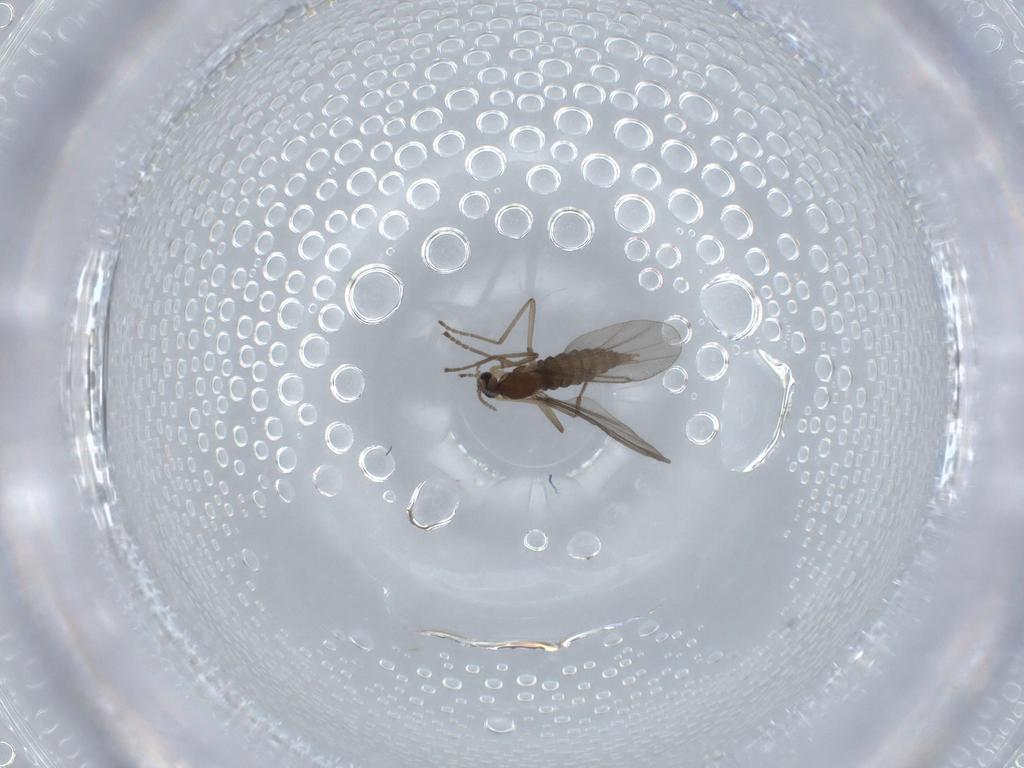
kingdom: Animalia
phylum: Arthropoda
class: Insecta
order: Diptera
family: Cecidomyiidae
